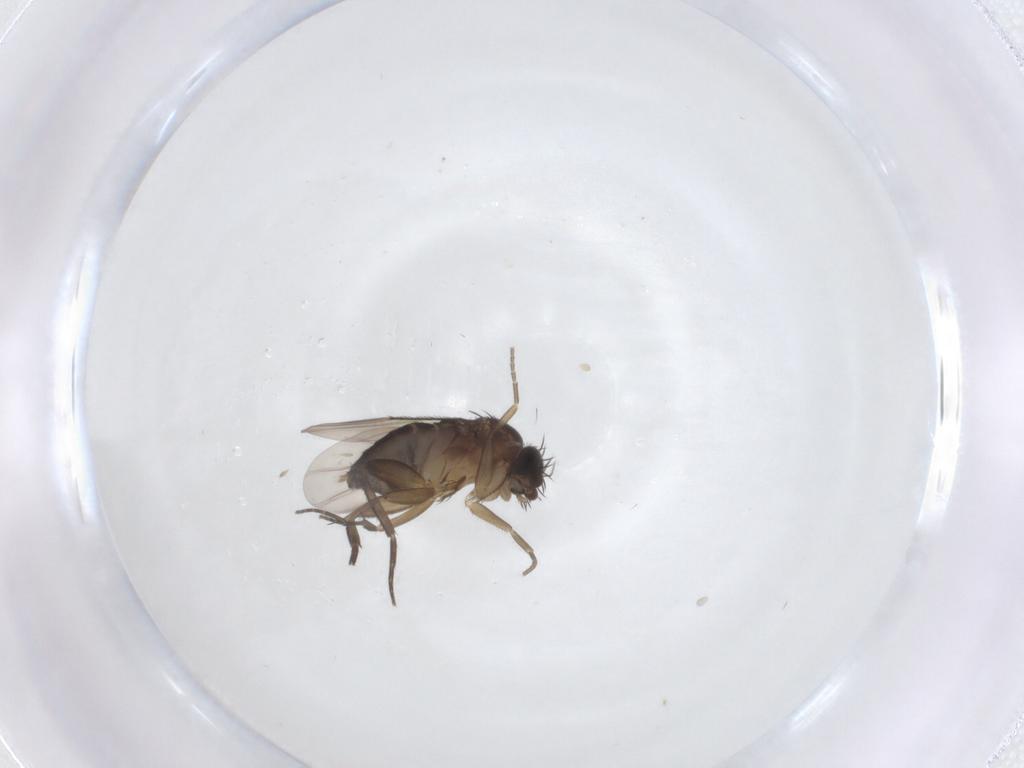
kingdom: Animalia
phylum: Arthropoda
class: Insecta
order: Diptera
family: Phoridae
